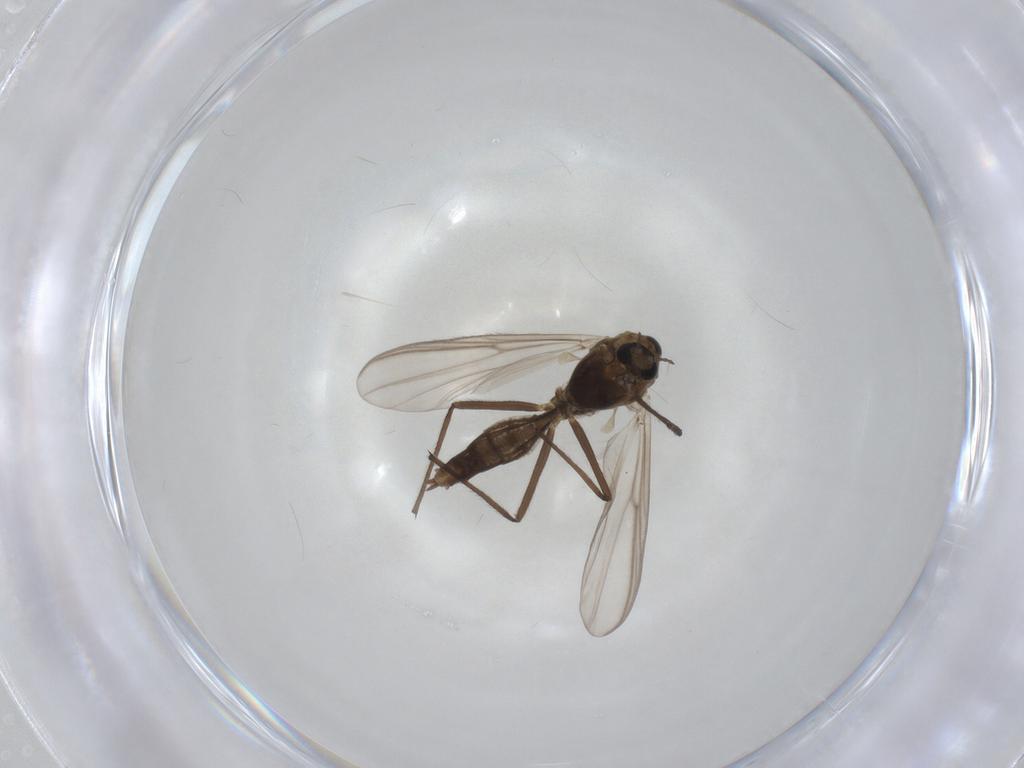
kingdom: Animalia
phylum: Arthropoda
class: Insecta
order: Diptera
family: Chironomidae
